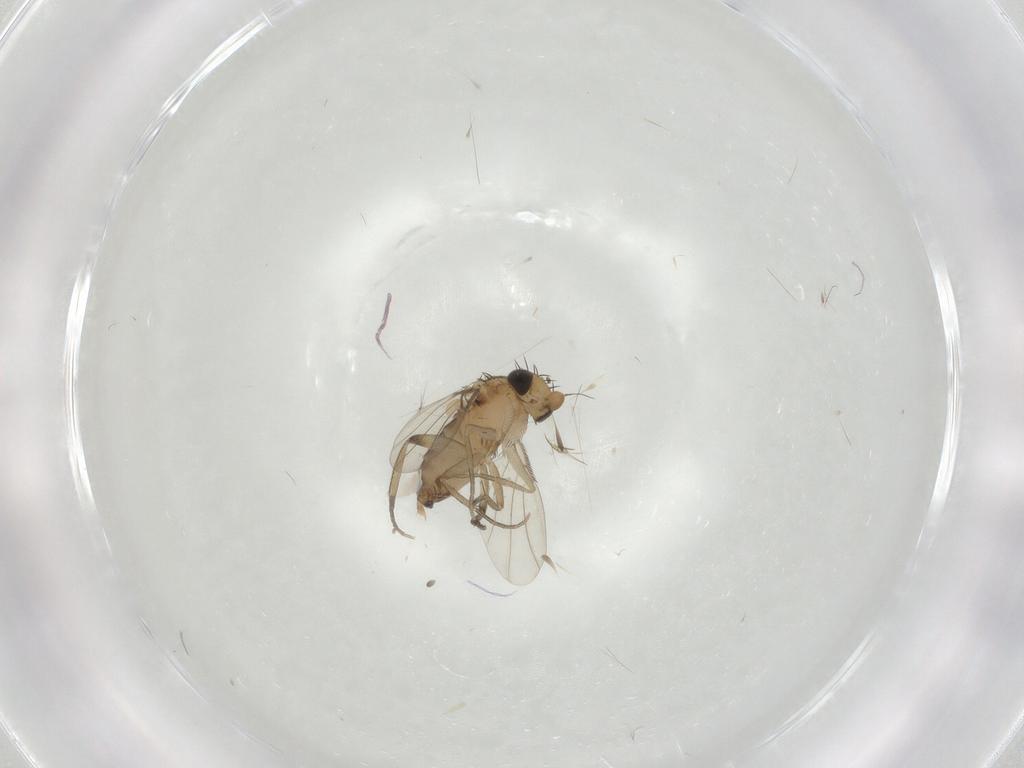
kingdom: Animalia
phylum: Arthropoda
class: Insecta
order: Diptera
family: Phoridae
